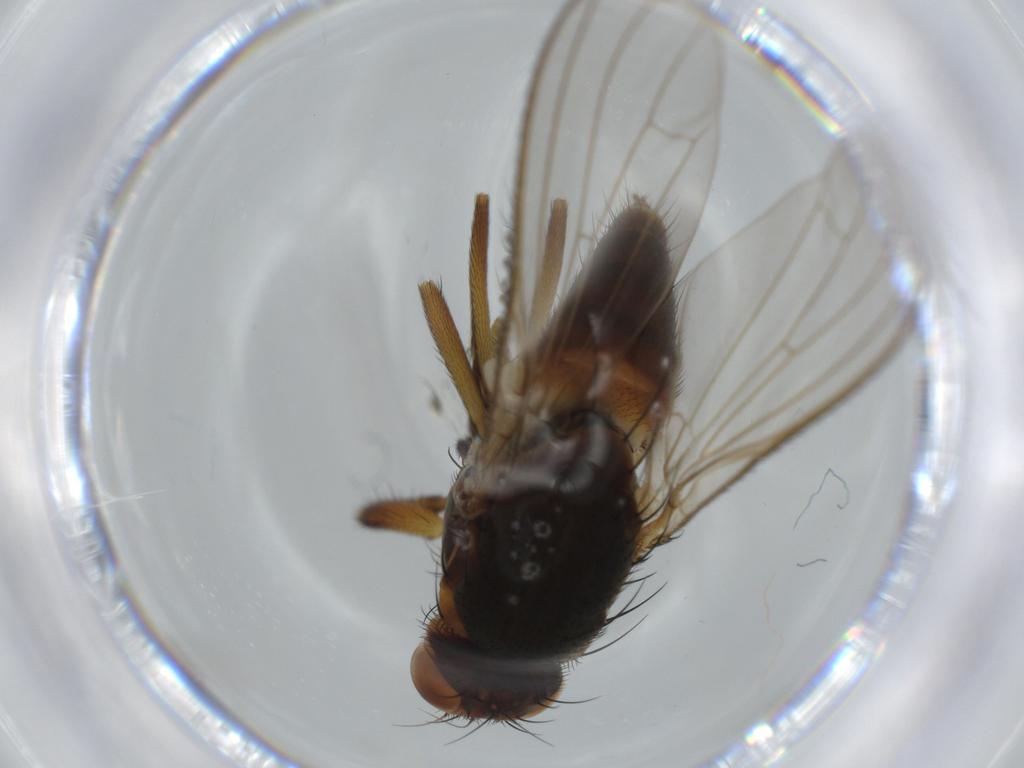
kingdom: Animalia
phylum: Arthropoda
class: Insecta
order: Diptera
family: Heleomyzidae
